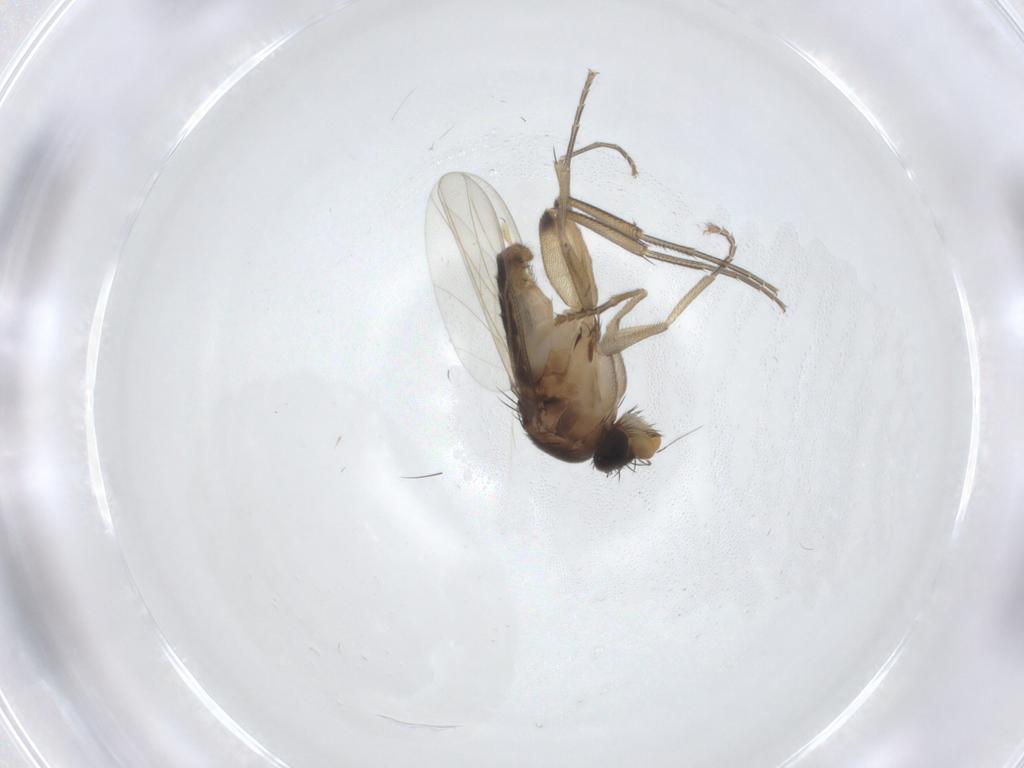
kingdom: Animalia
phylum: Arthropoda
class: Insecta
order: Diptera
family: Phoridae
